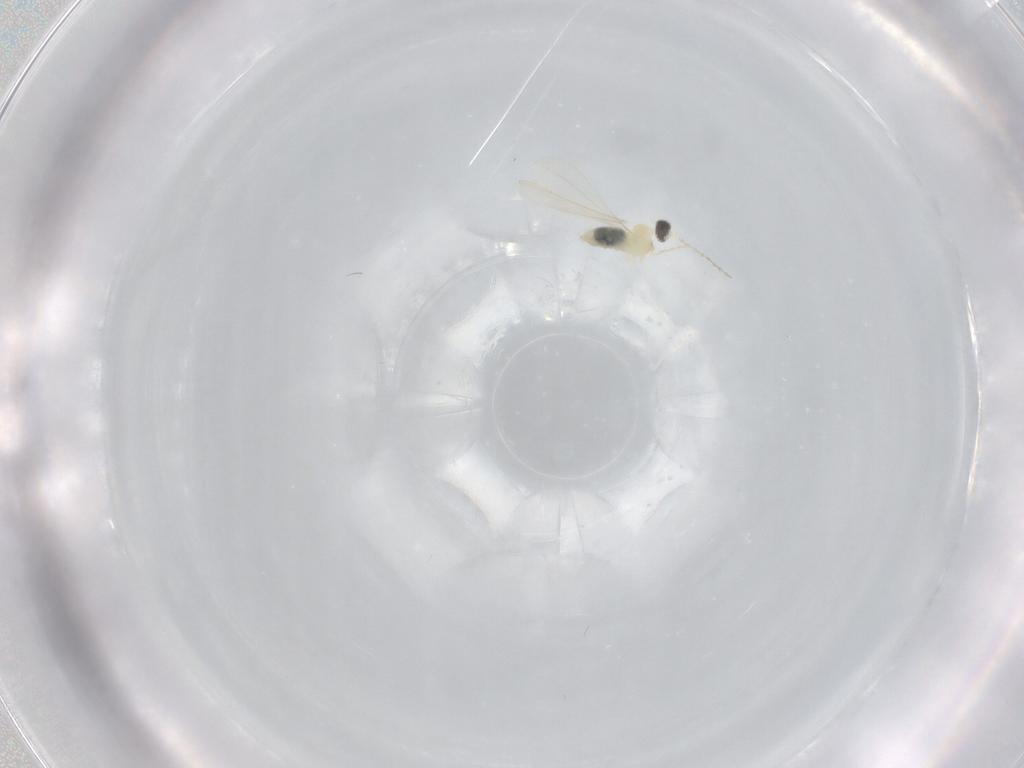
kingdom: Animalia
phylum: Arthropoda
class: Insecta
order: Diptera
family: Cecidomyiidae
